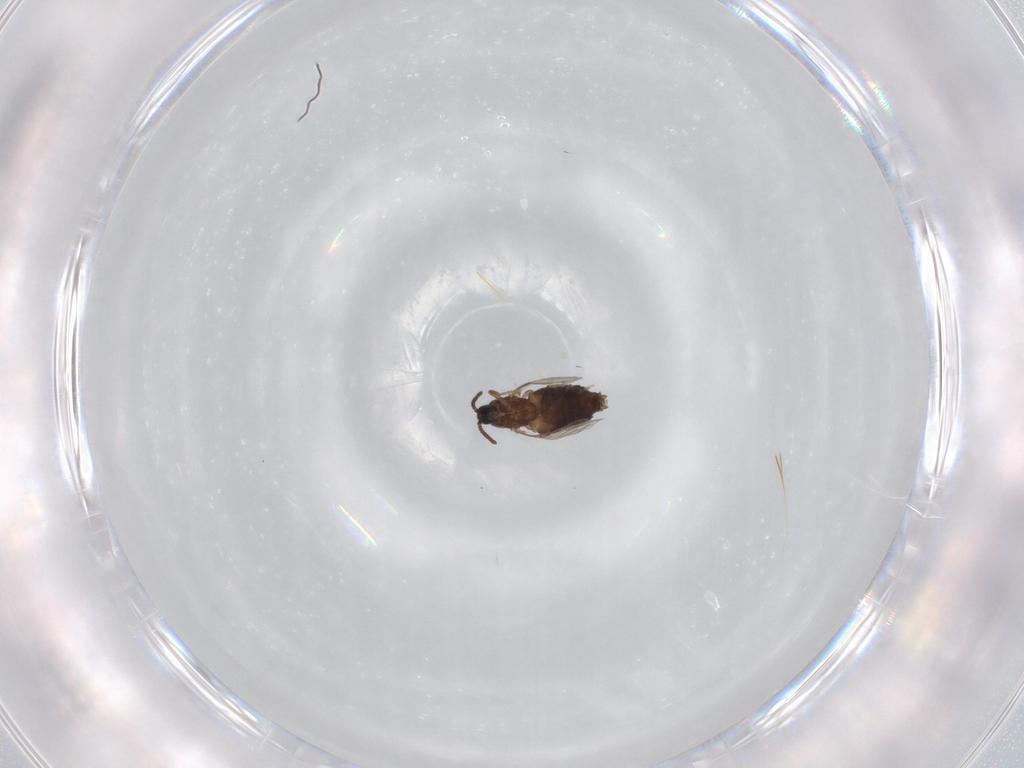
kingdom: Animalia
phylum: Arthropoda
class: Insecta
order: Diptera
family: Scatopsidae
